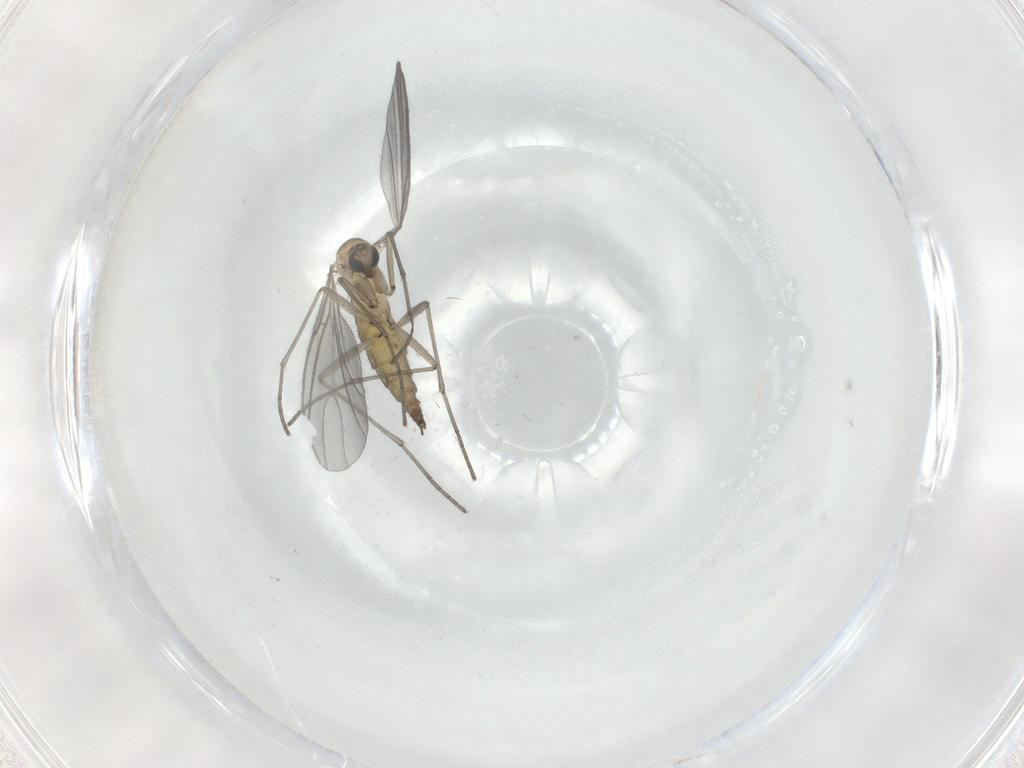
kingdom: Animalia
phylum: Arthropoda
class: Insecta
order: Diptera
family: Sciaridae
